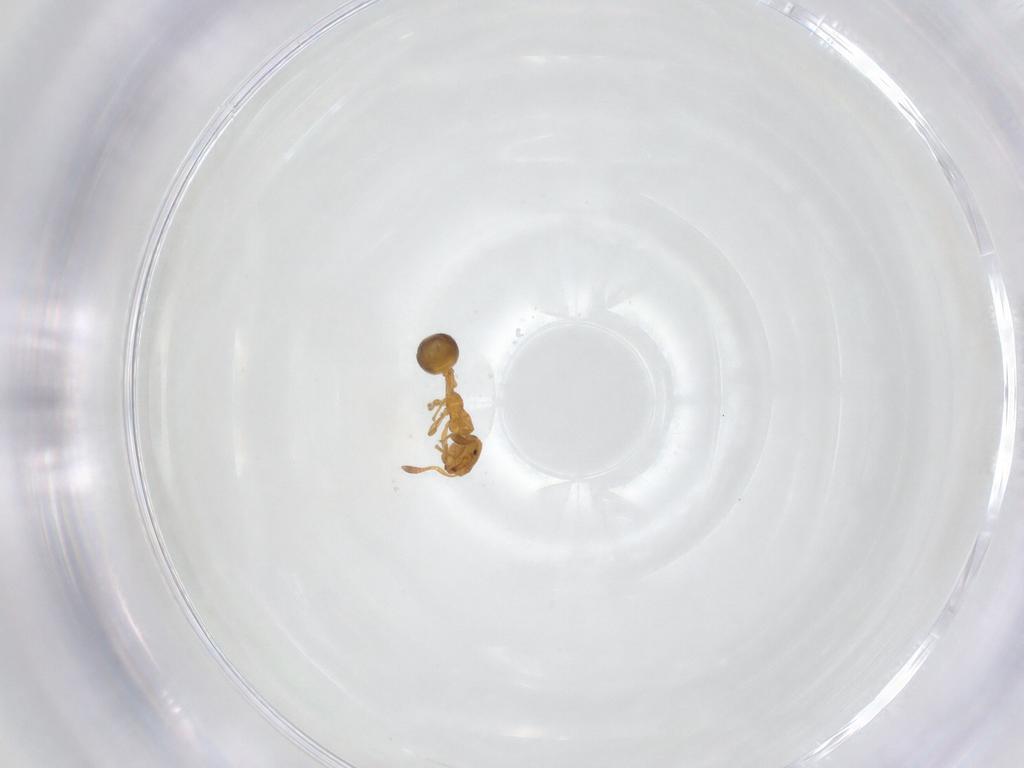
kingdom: Animalia
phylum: Arthropoda
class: Insecta
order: Hymenoptera
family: Formicidae
